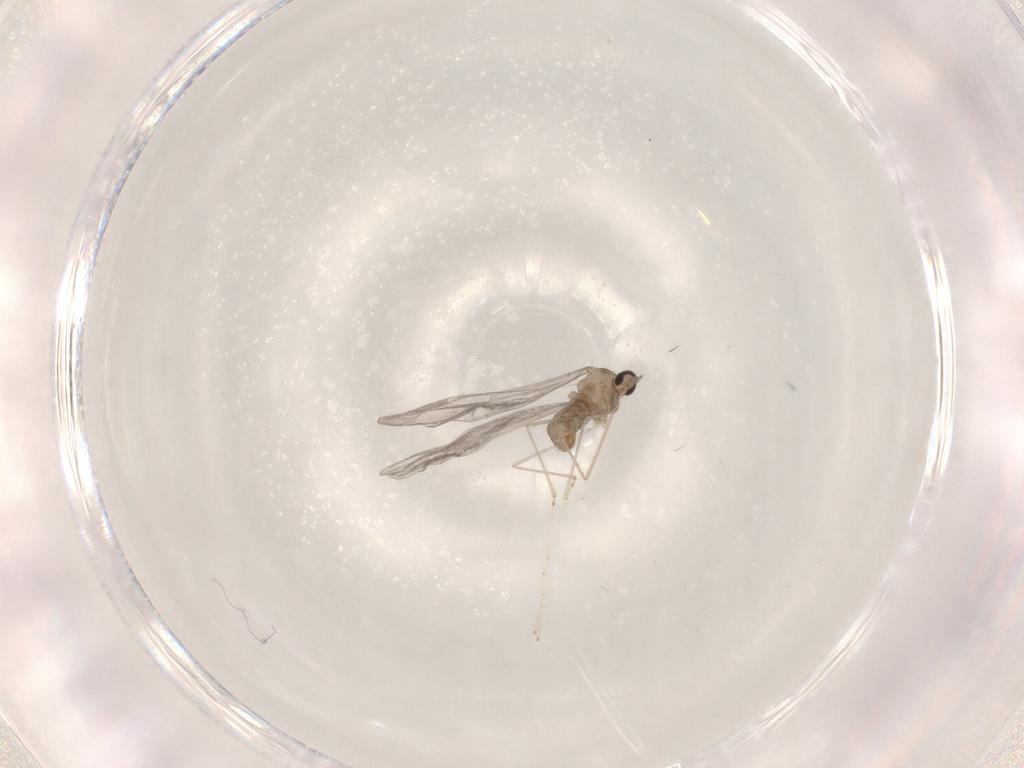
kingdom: Animalia
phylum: Arthropoda
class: Insecta
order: Diptera
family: Cecidomyiidae
